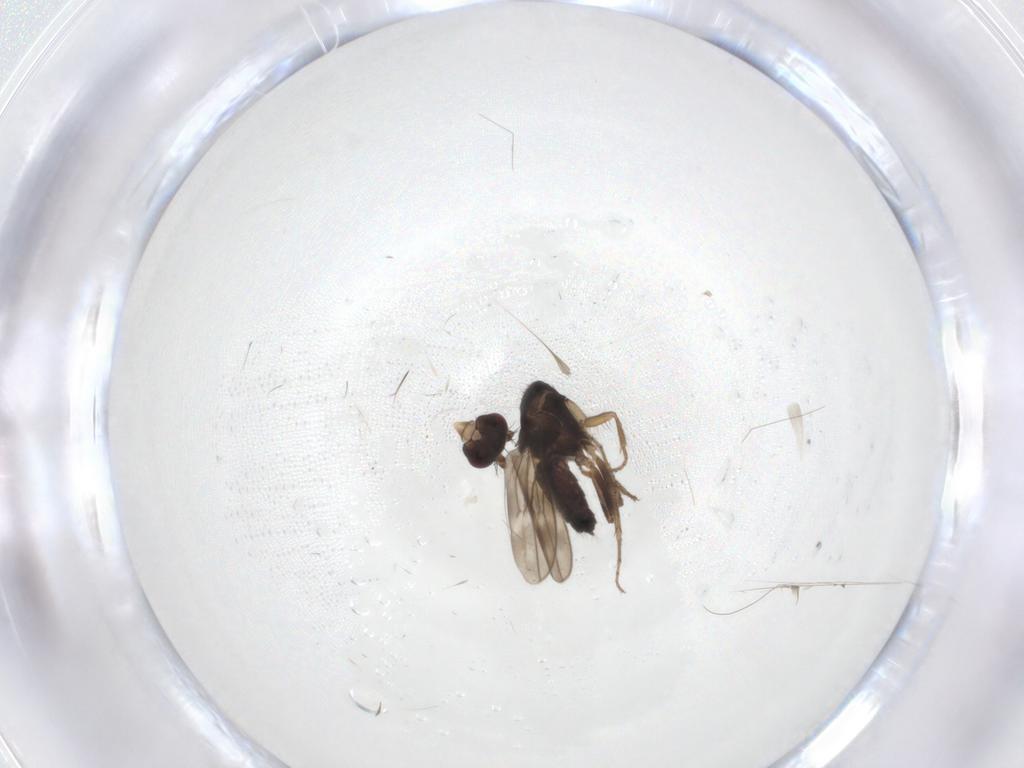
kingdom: Animalia
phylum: Arthropoda
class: Insecta
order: Diptera
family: Sphaeroceridae
